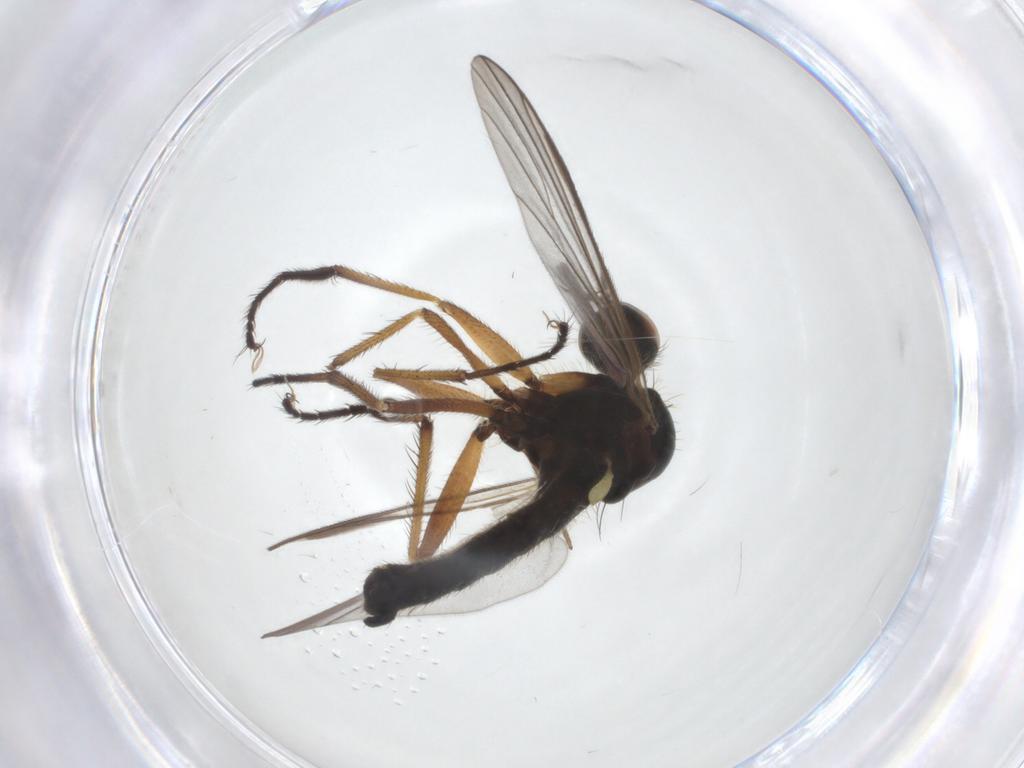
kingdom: Animalia
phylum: Arthropoda
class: Insecta
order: Diptera
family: Empididae
